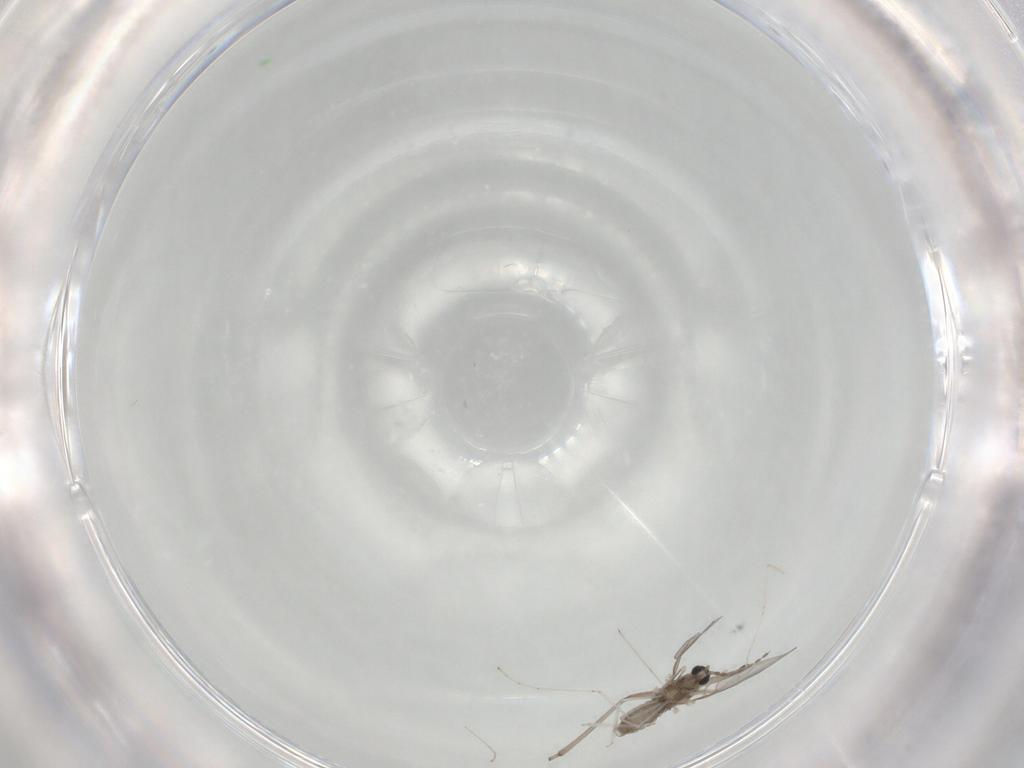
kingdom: Animalia
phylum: Arthropoda
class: Insecta
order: Diptera
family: Cecidomyiidae
